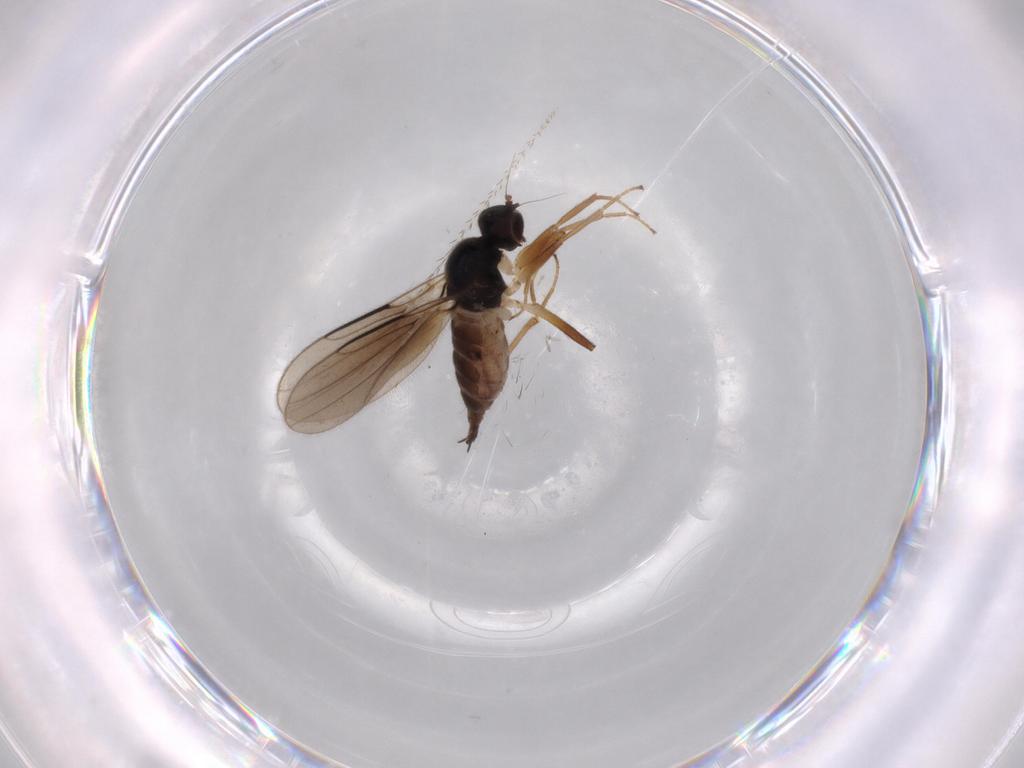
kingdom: Animalia
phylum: Arthropoda
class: Insecta
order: Diptera
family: Hybotidae
